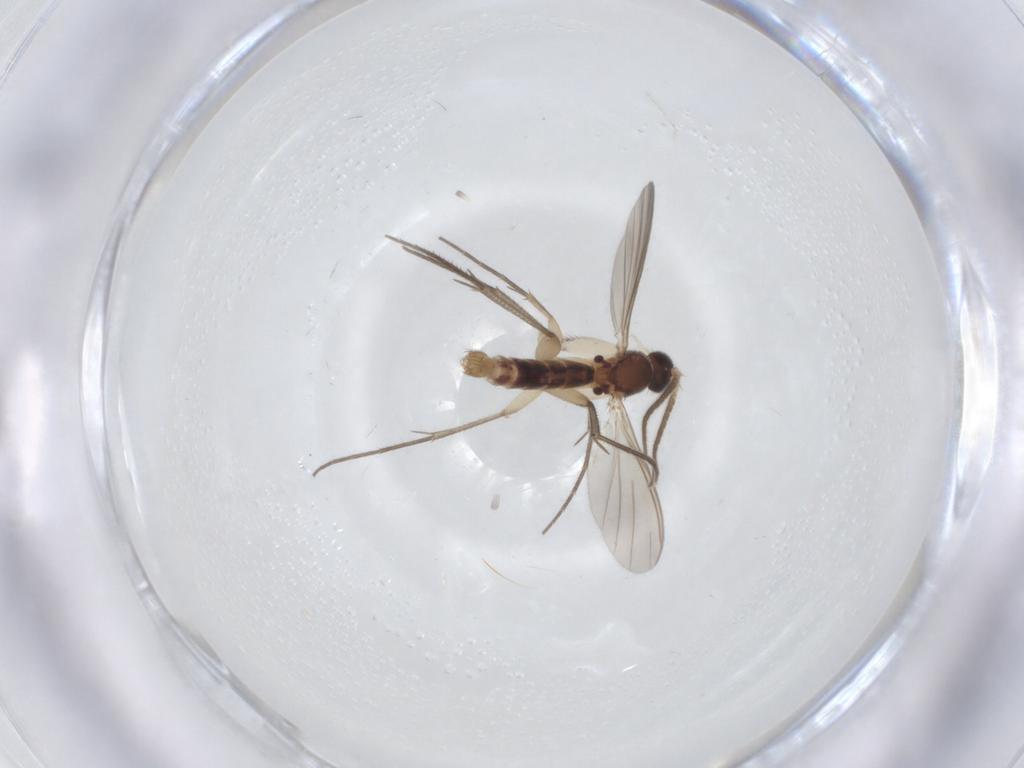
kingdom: Animalia
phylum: Arthropoda
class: Insecta
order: Diptera
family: Mycetophilidae
